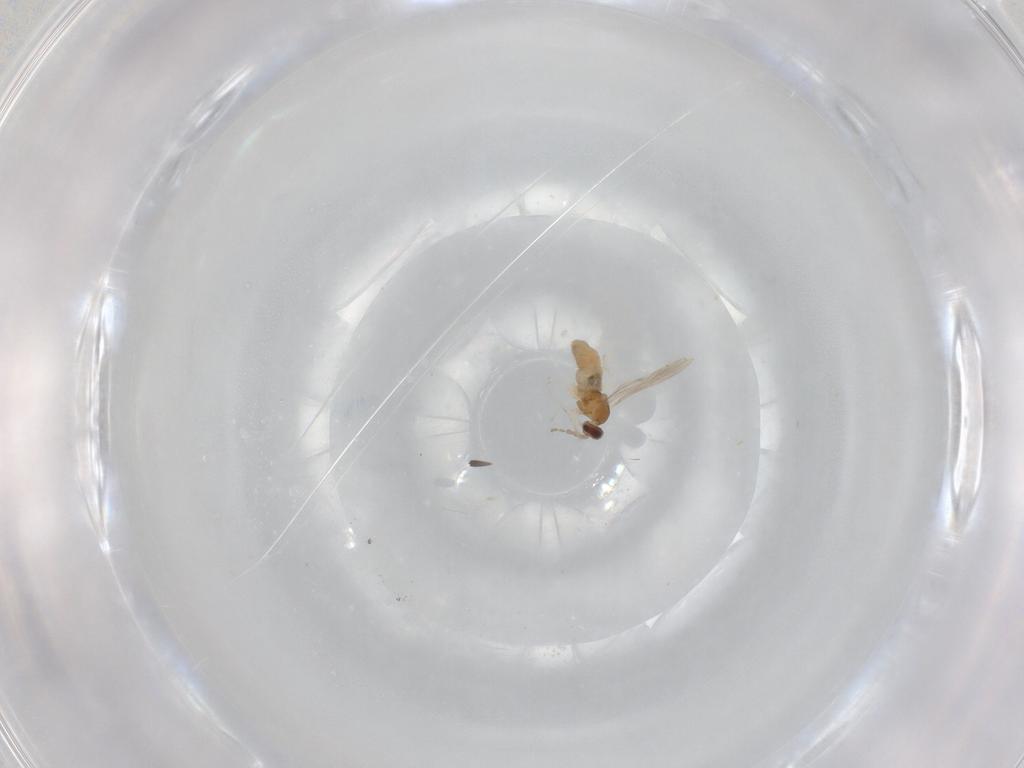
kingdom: Animalia
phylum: Arthropoda
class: Insecta
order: Diptera
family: Cecidomyiidae
